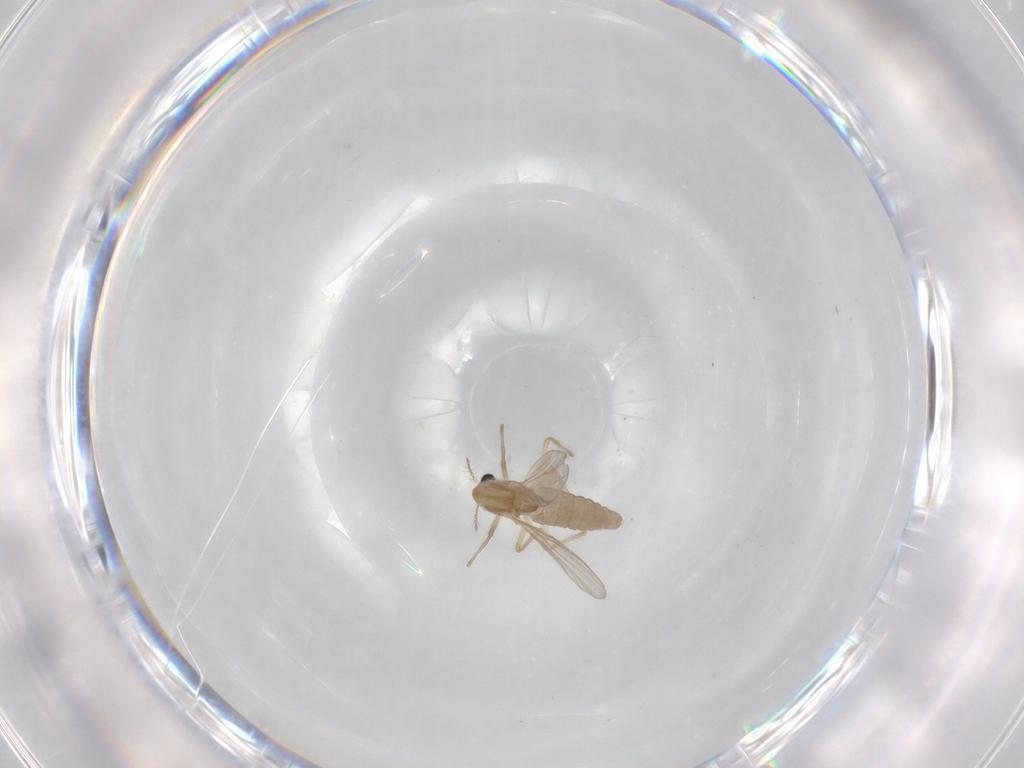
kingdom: Animalia
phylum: Arthropoda
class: Insecta
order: Diptera
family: Chironomidae
